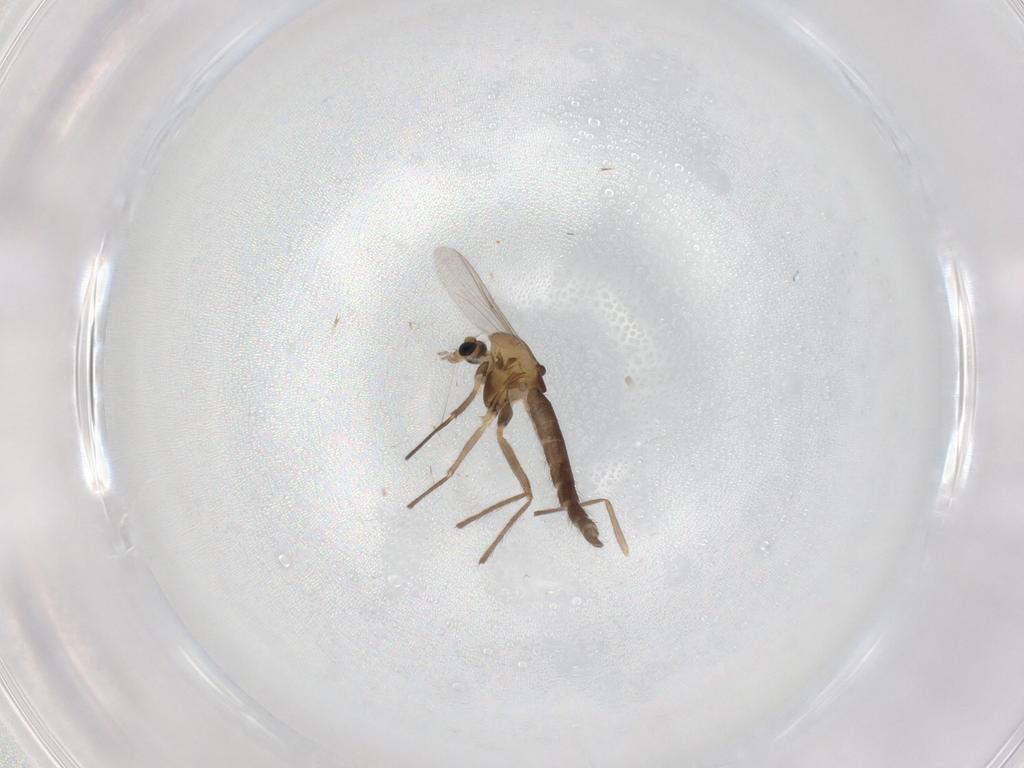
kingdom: Animalia
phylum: Arthropoda
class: Insecta
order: Diptera
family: Chironomidae
